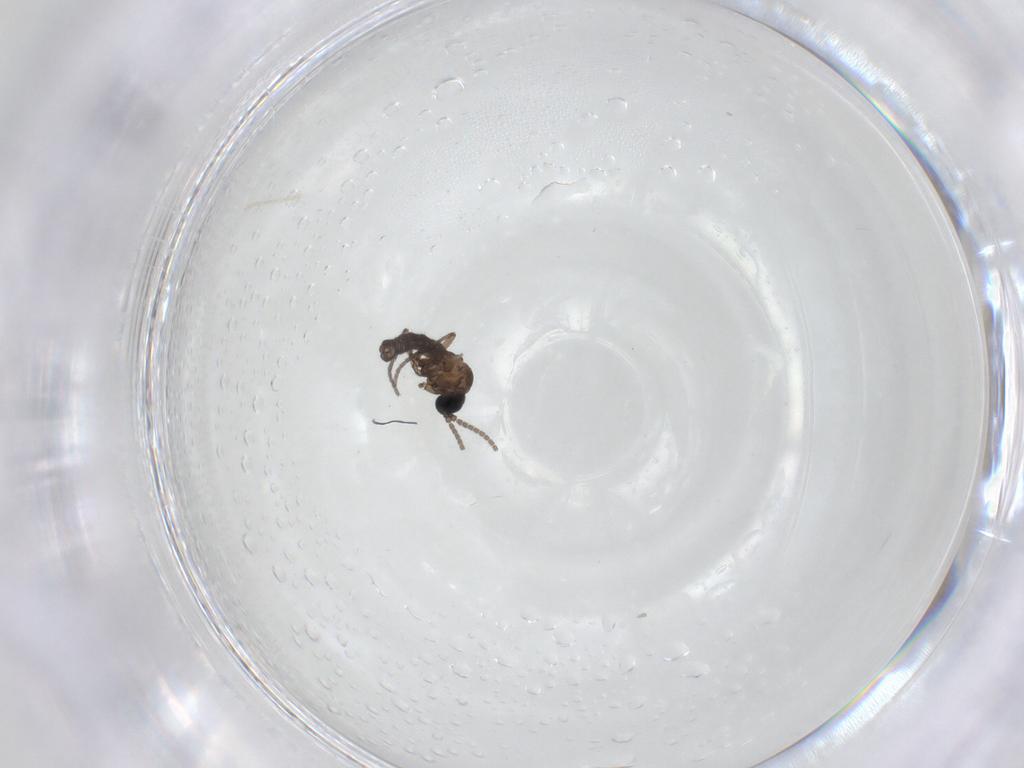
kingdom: Animalia
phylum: Arthropoda
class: Insecta
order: Diptera
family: Sciaridae
